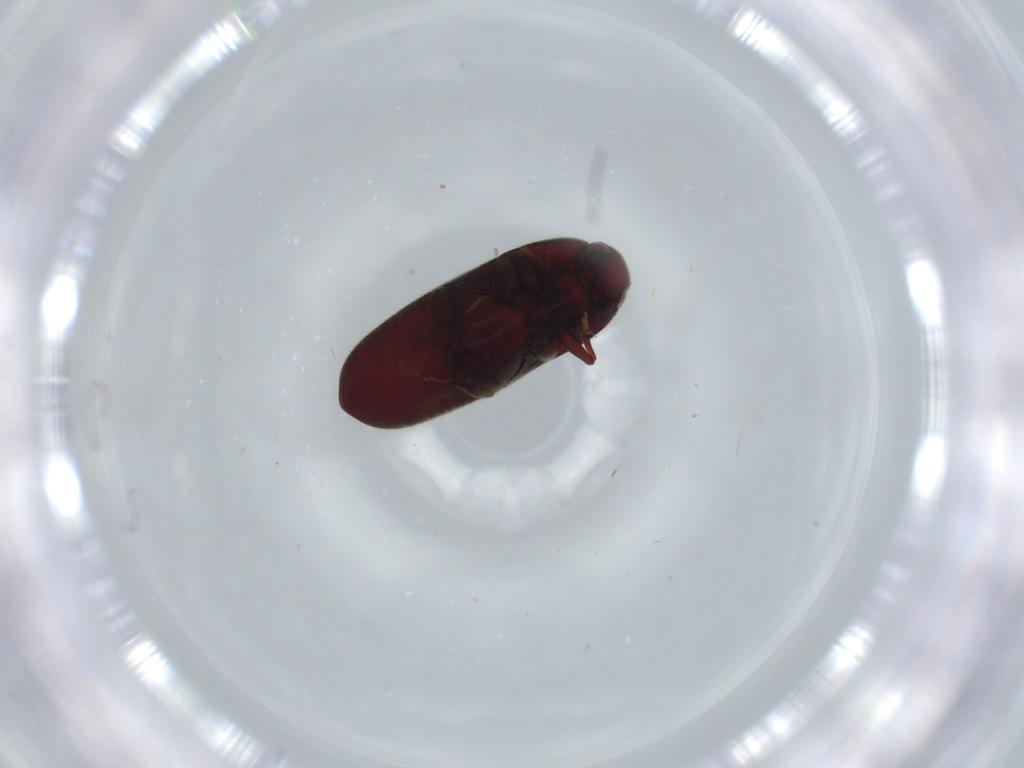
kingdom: Animalia
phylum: Arthropoda
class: Insecta
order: Coleoptera
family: Throscidae
